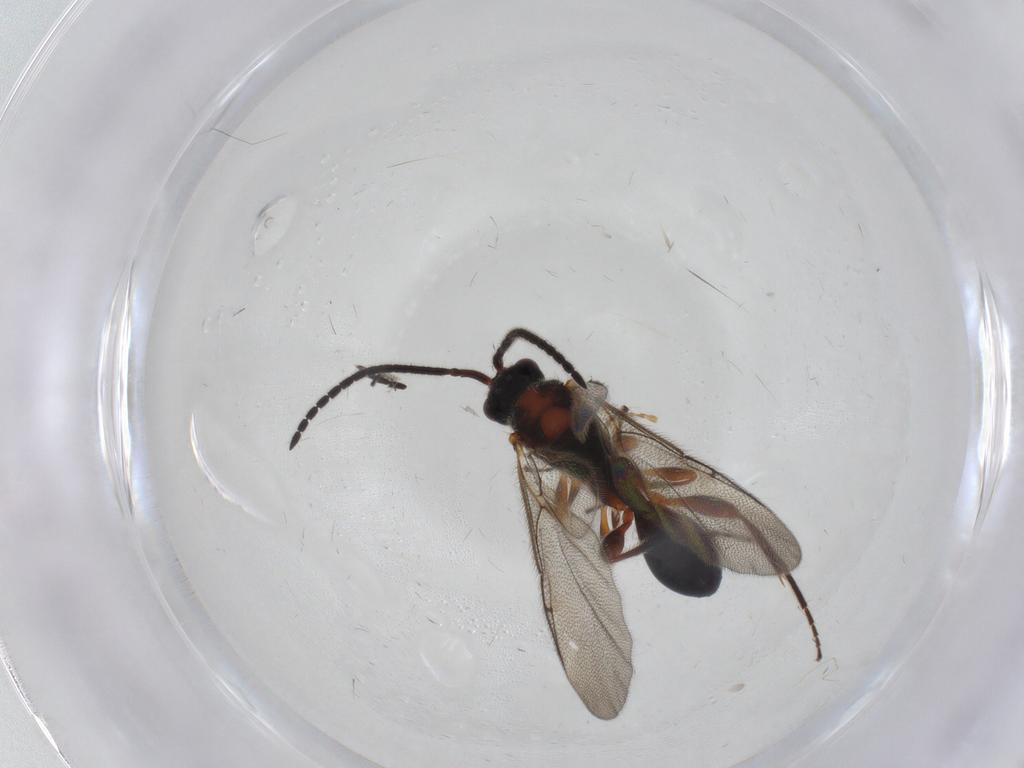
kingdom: Animalia
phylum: Arthropoda
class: Insecta
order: Hymenoptera
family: Diapriidae
